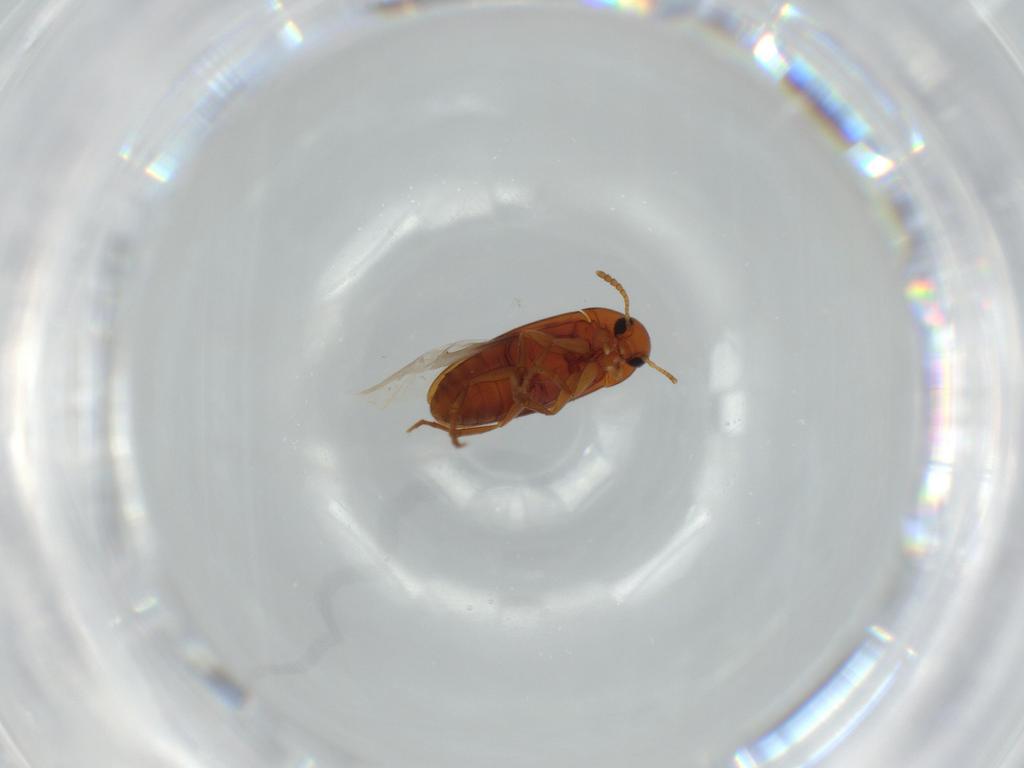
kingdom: Animalia
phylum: Arthropoda
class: Insecta
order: Coleoptera
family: Scraptiidae
